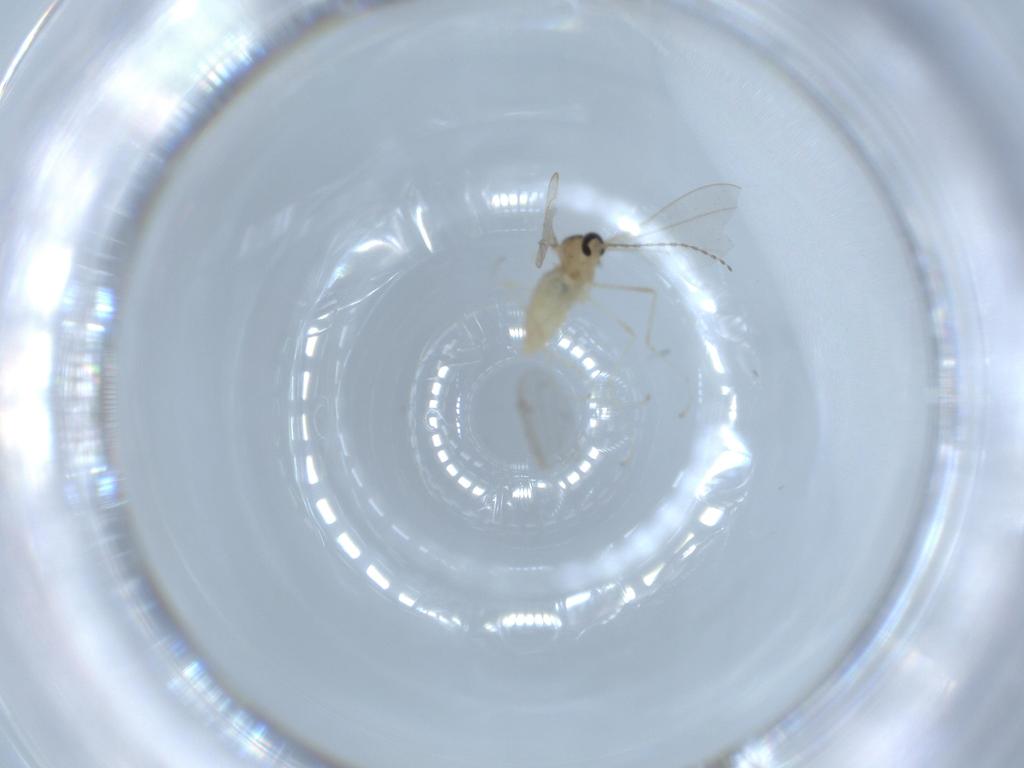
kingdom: Animalia
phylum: Arthropoda
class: Insecta
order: Diptera
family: Cecidomyiidae
